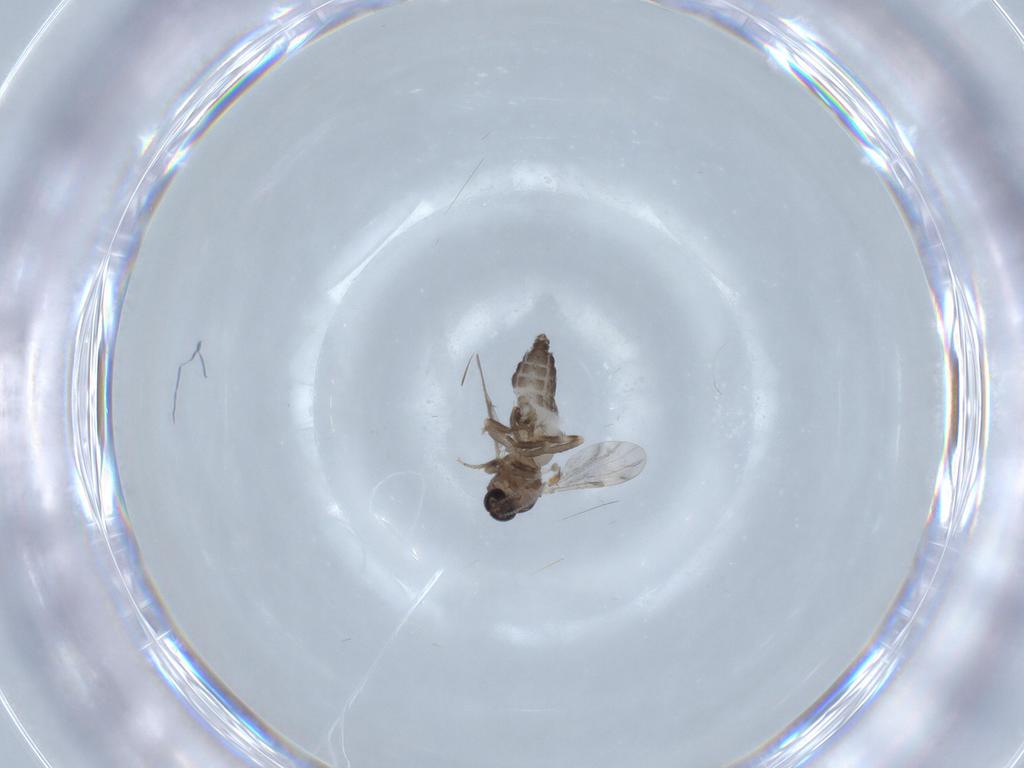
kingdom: Animalia
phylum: Arthropoda
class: Insecta
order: Diptera
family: Ceratopogonidae
